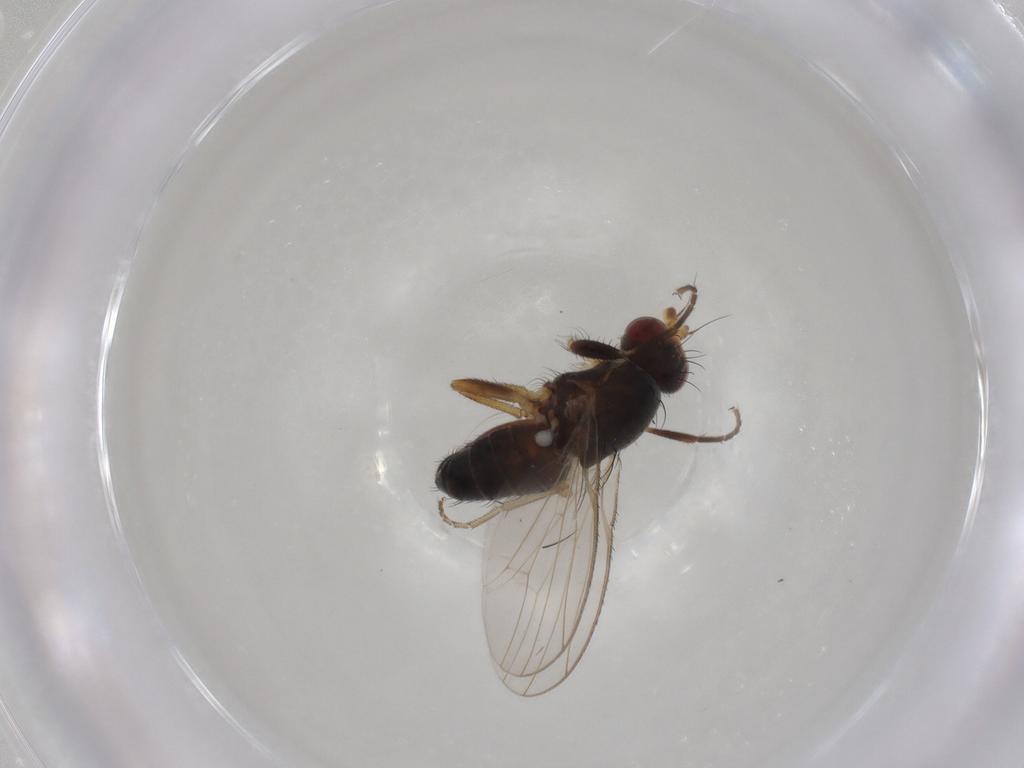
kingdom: Animalia
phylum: Arthropoda
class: Insecta
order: Diptera
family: Heleomyzidae
